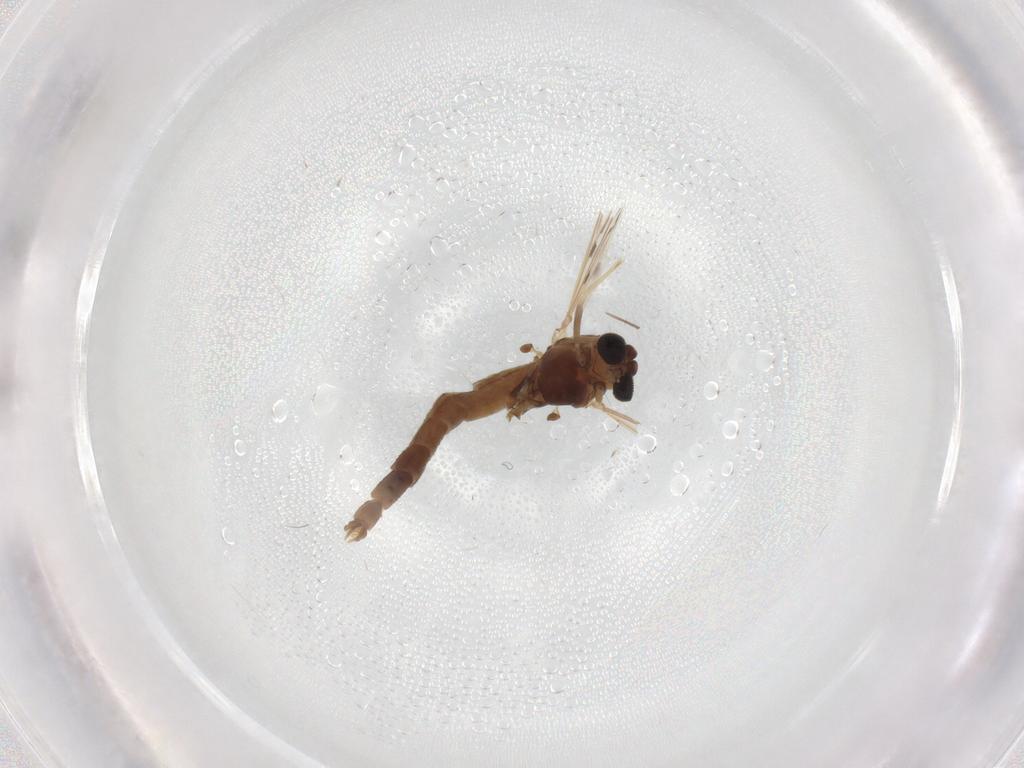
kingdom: Animalia
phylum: Arthropoda
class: Insecta
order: Diptera
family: Chironomidae
